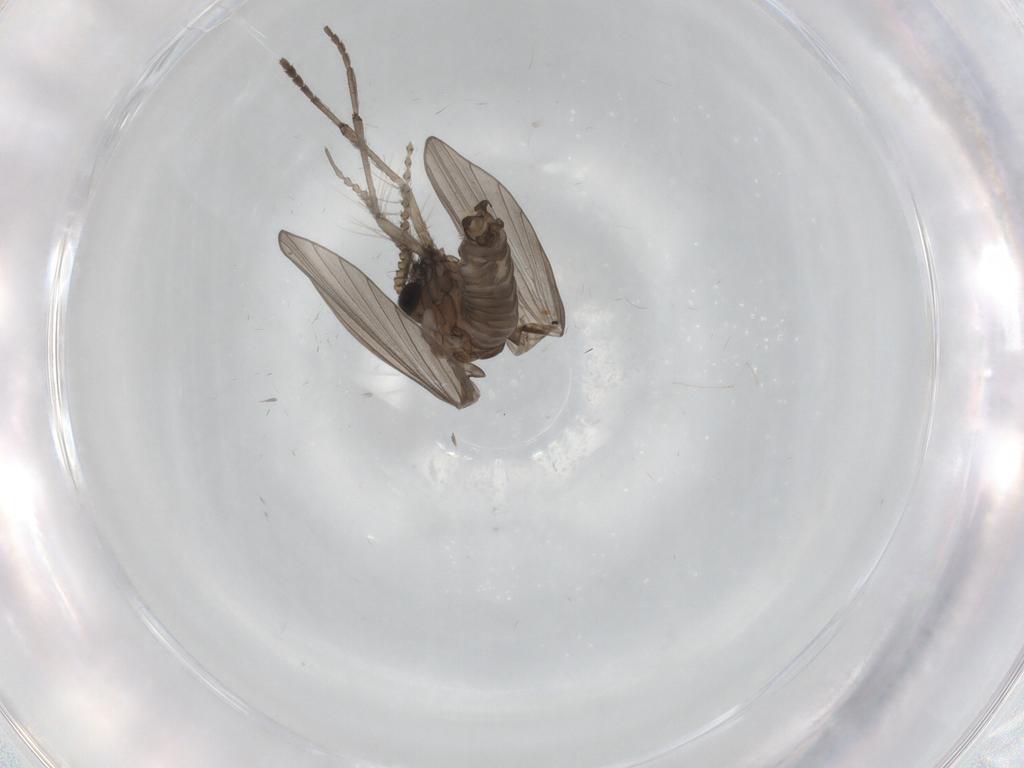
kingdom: Animalia
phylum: Arthropoda
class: Insecta
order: Diptera
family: Psychodidae
